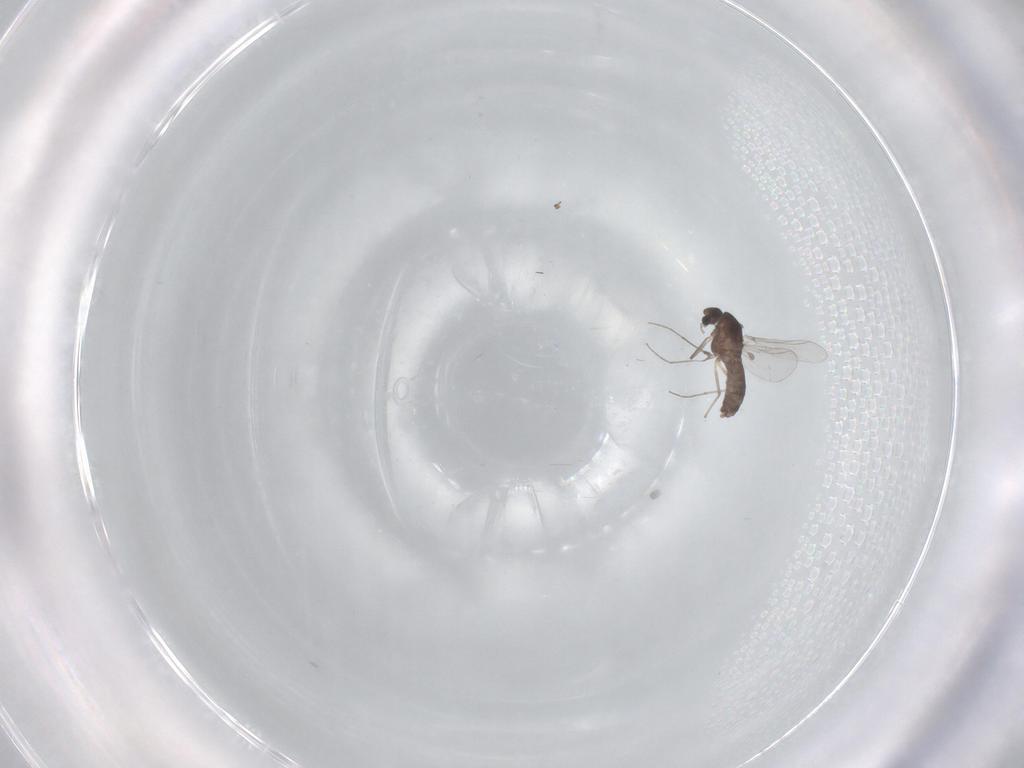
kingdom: Animalia
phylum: Arthropoda
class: Insecta
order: Diptera
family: Chironomidae
